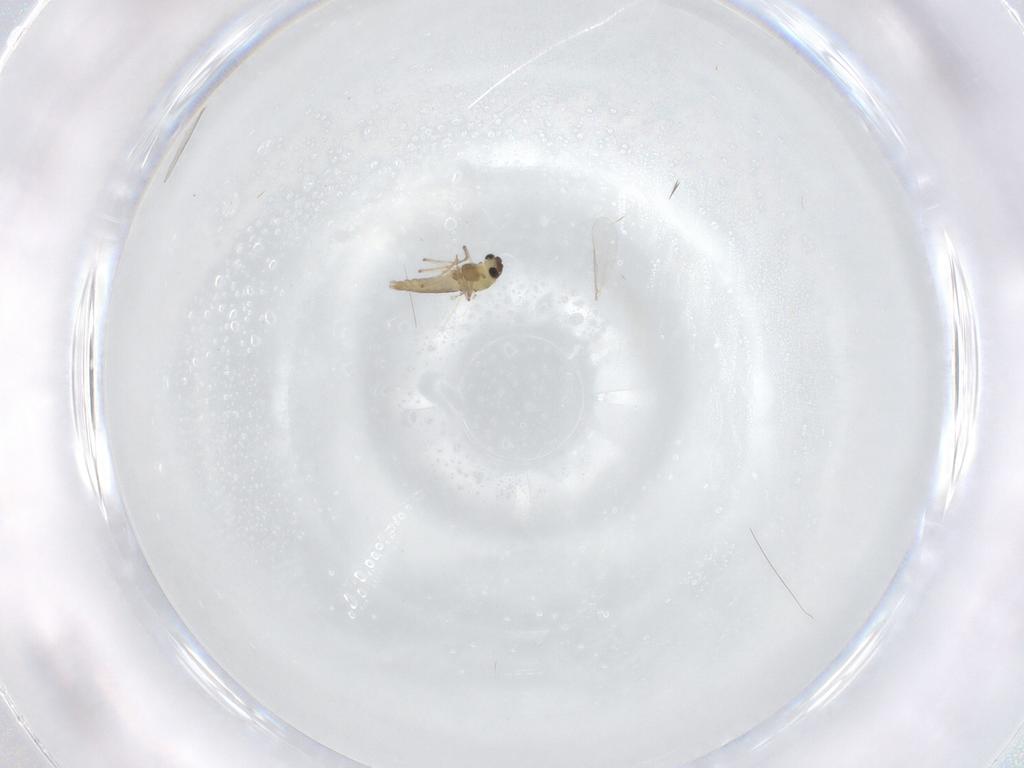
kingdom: Animalia
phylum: Arthropoda
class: Insecta
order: Diptera
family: Chironomidae
